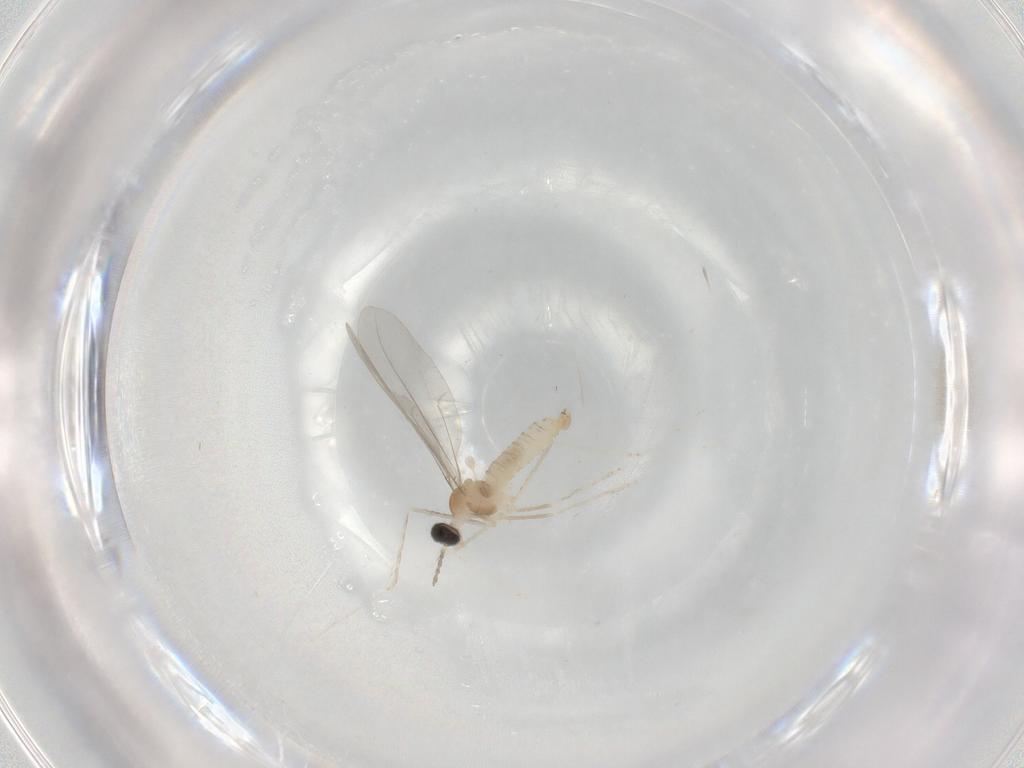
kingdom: Animalia
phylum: Arthropoda
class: Insecta
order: Diptera
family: Cecidomyiidae
